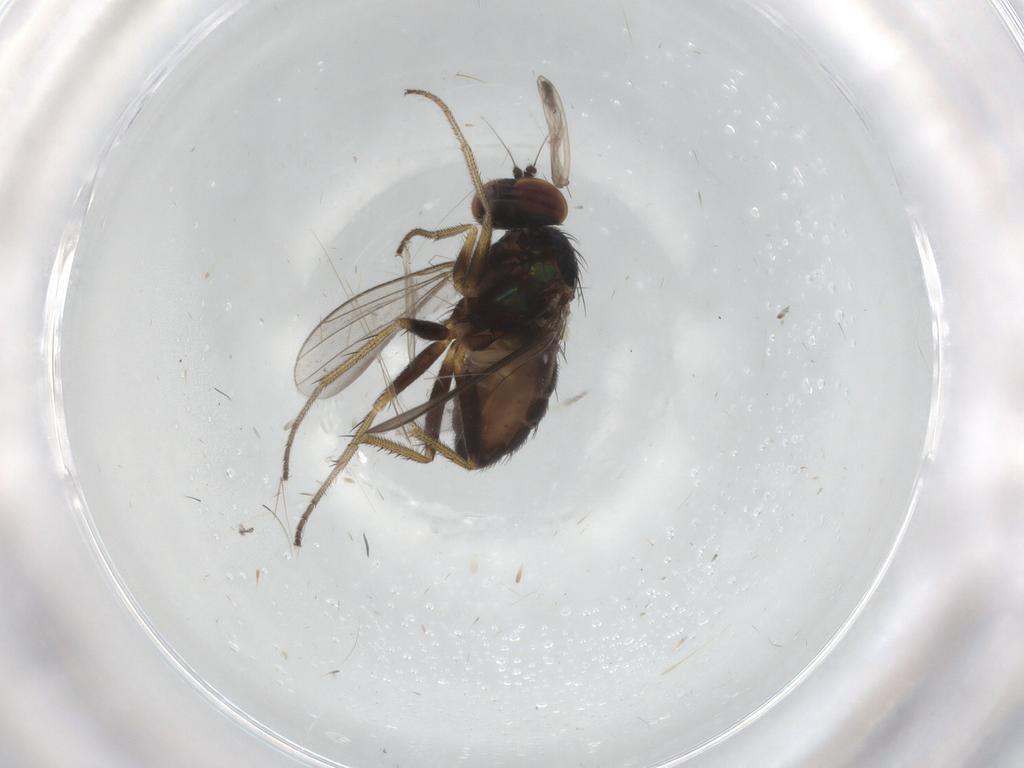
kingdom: Animalia
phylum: Arthropoda
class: Insecta
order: Diptera
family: Dolichopodidae
